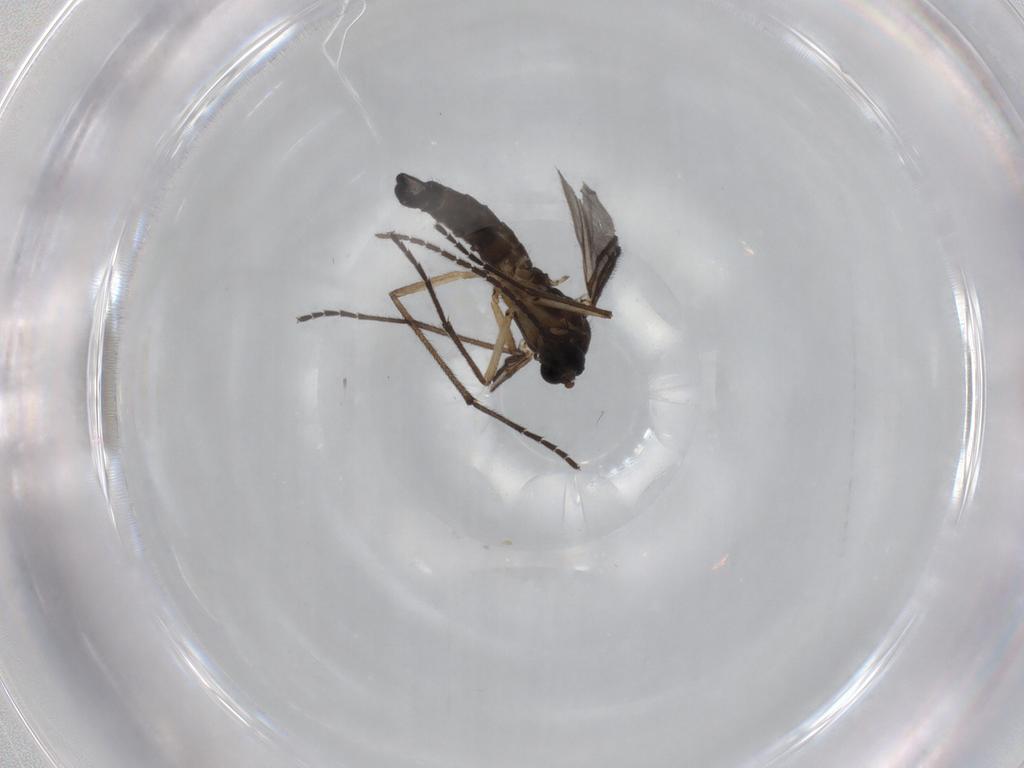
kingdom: Animalia
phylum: Arthropoda
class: Insecta
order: Diptera
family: Sciaridae
